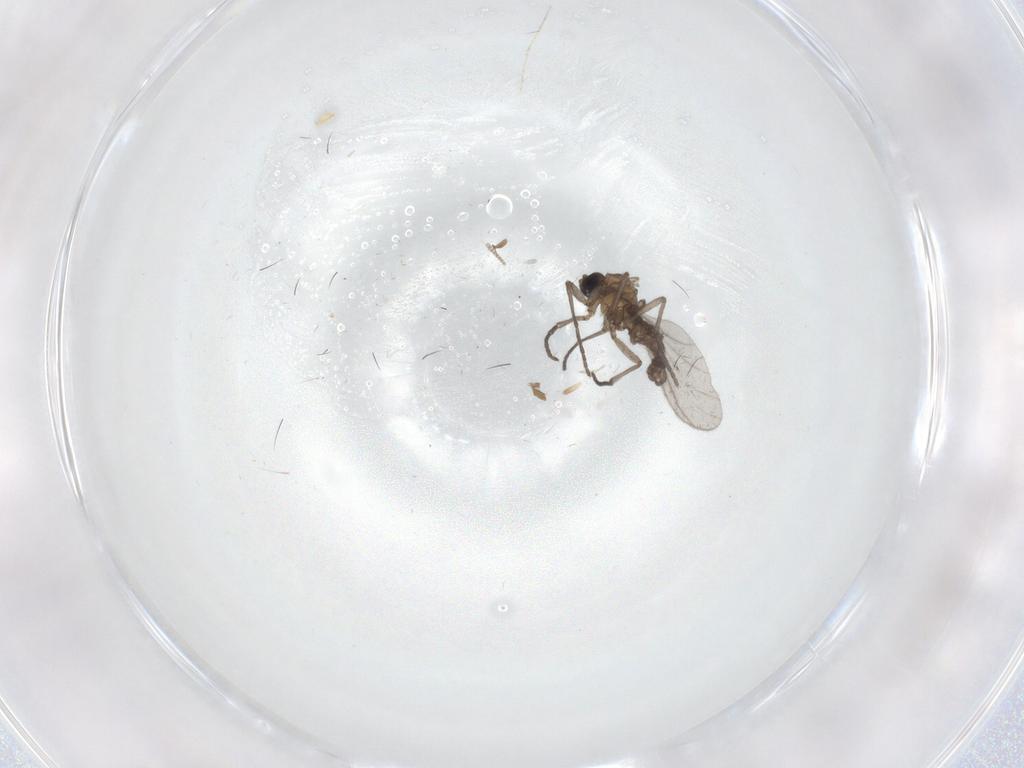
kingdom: Animalia
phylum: Arthropoda
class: Insecta
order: Diptera
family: Sciaridae
